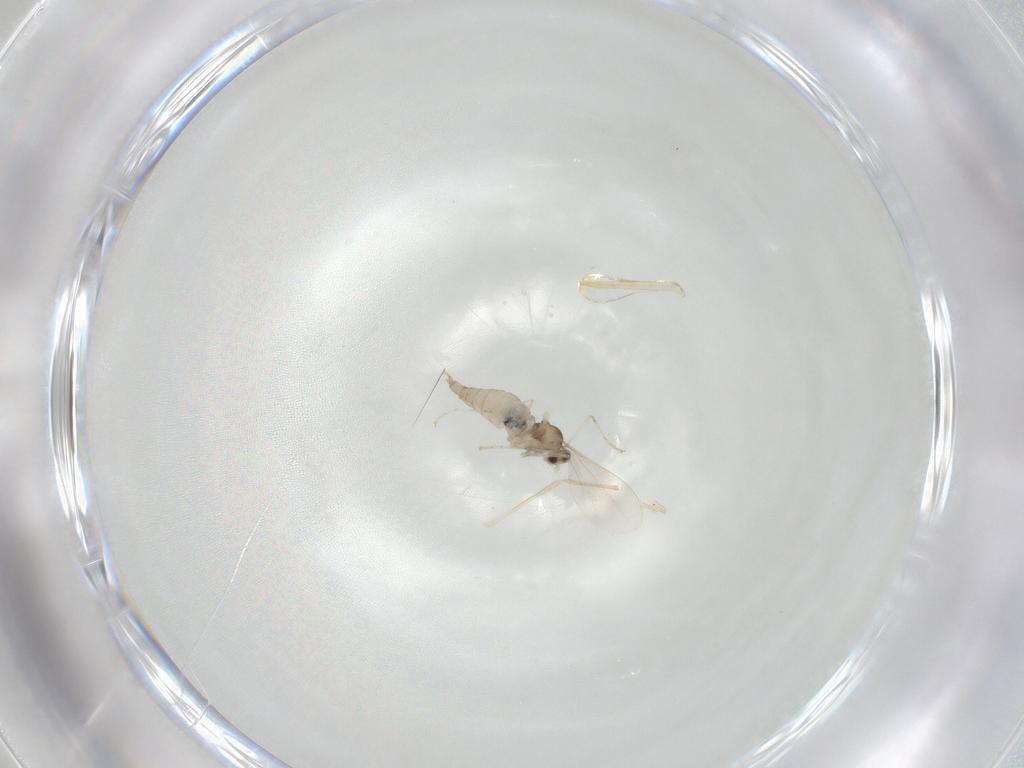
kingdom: Animalia
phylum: Arthropoda
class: Insecta
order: Diptera
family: Cecidomyiidae
